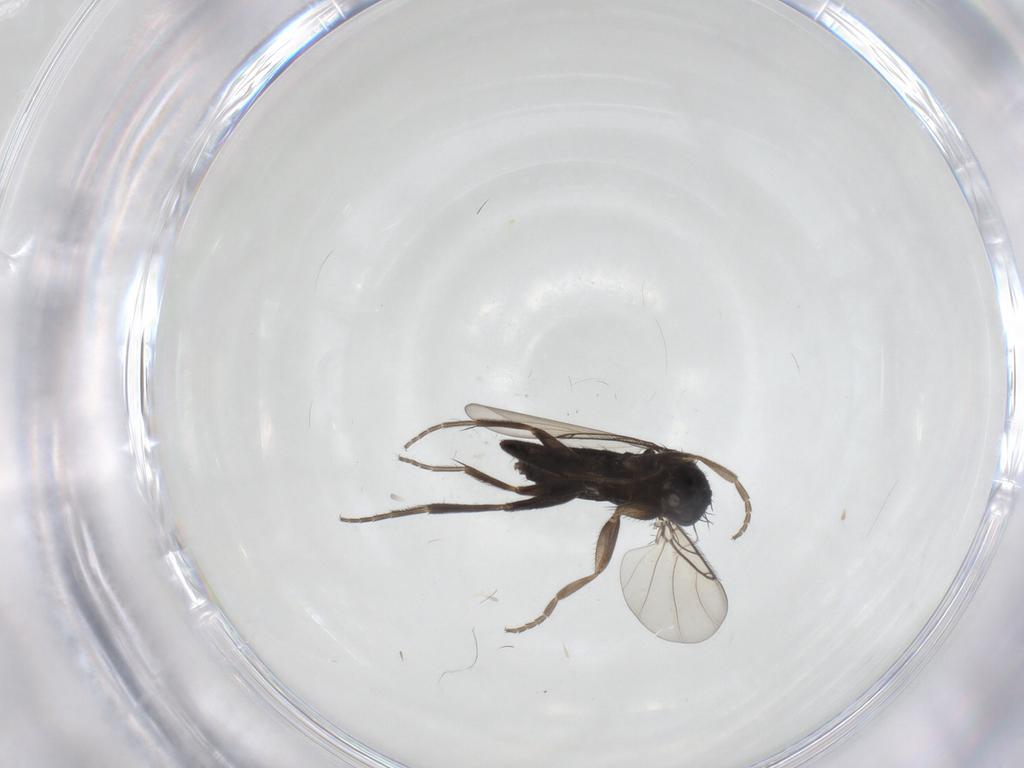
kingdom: Animalia
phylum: Arthropoda
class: Insecta
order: Diptera
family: Phoridae
